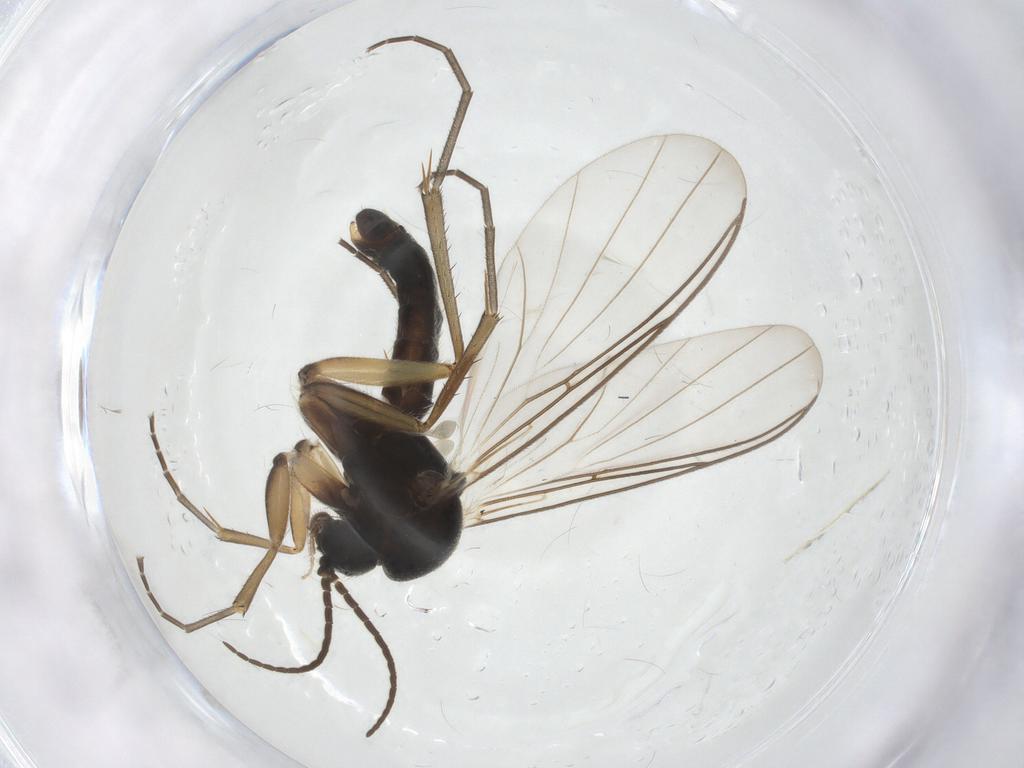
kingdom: Animalia
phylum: Arthropoda
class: Insecta
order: Diptera
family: Mycetophilidae
